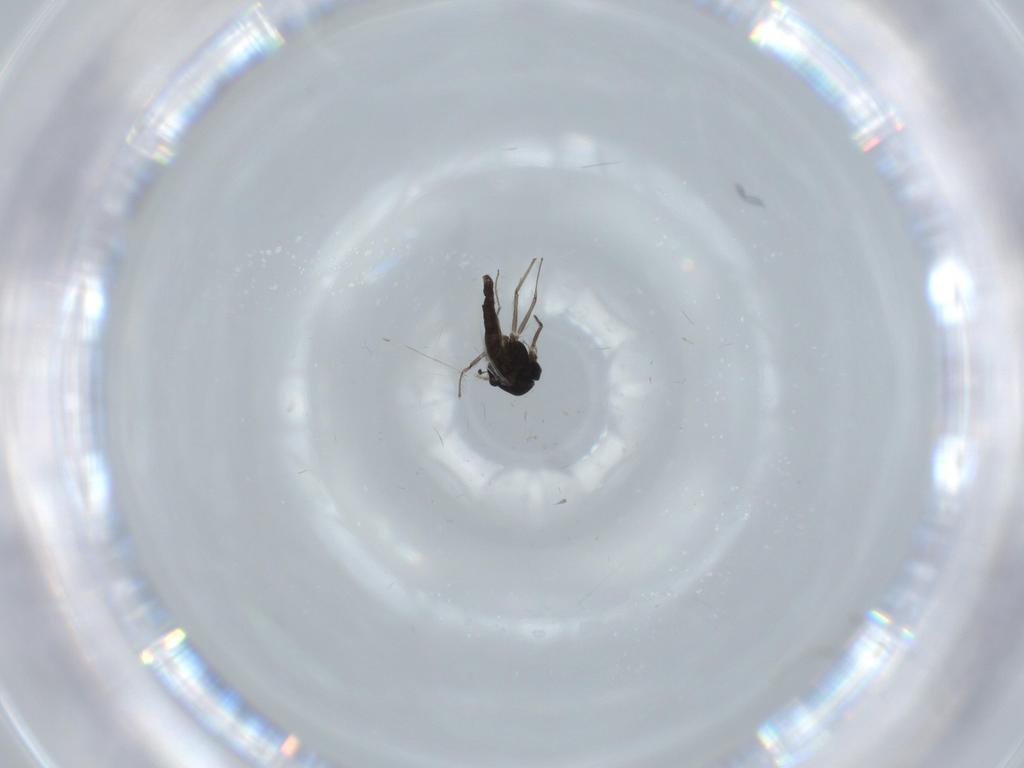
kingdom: Animalia
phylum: Arthropoda
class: Insecta
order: Diptera
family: Chironomidae
